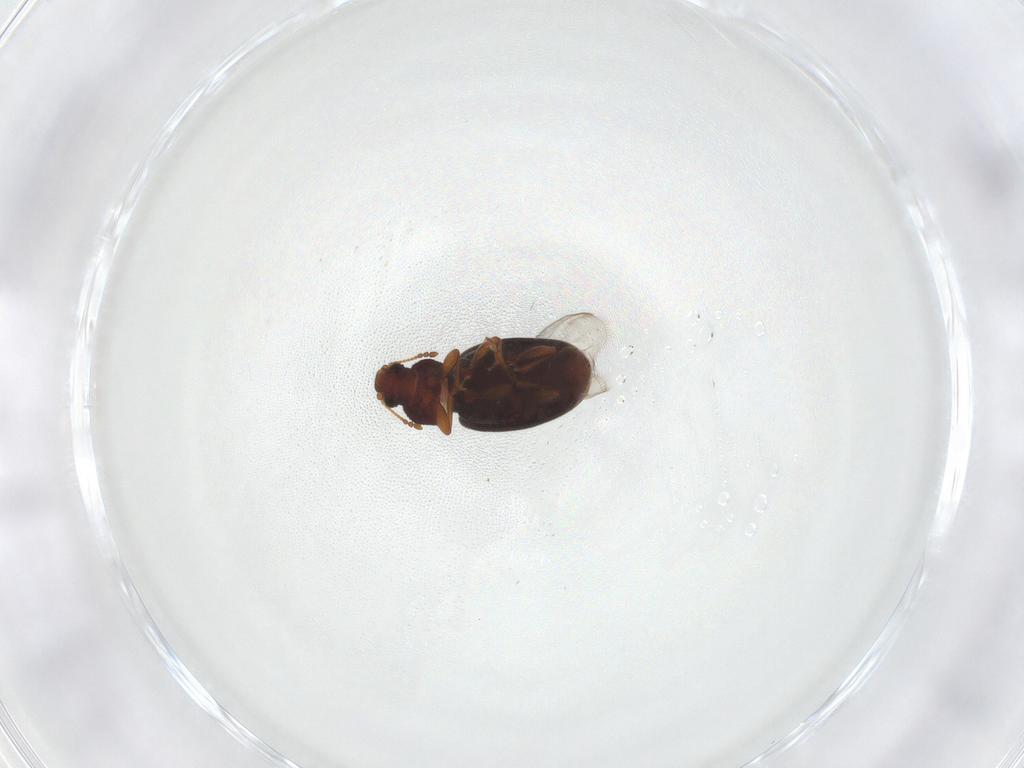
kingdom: Animalia
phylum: Arthropoda
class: Insecta
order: Coleoptera
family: Latridiidae
